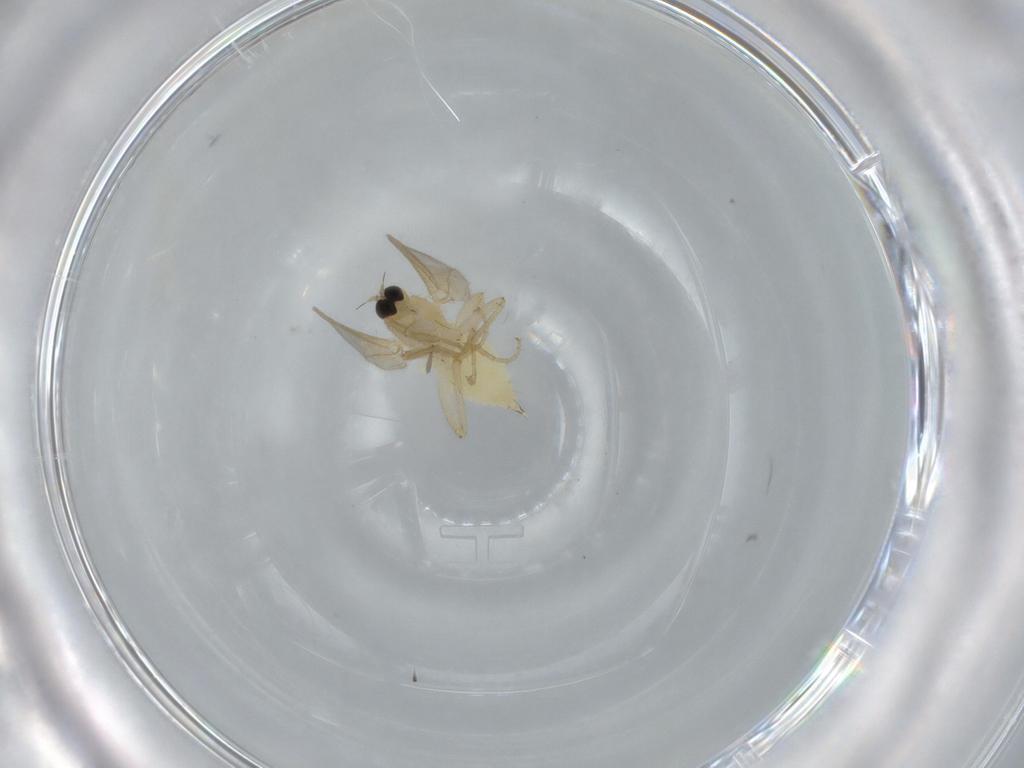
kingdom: Animalia
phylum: Arthropoda
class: Insecta
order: Diptera
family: Hybotidae
